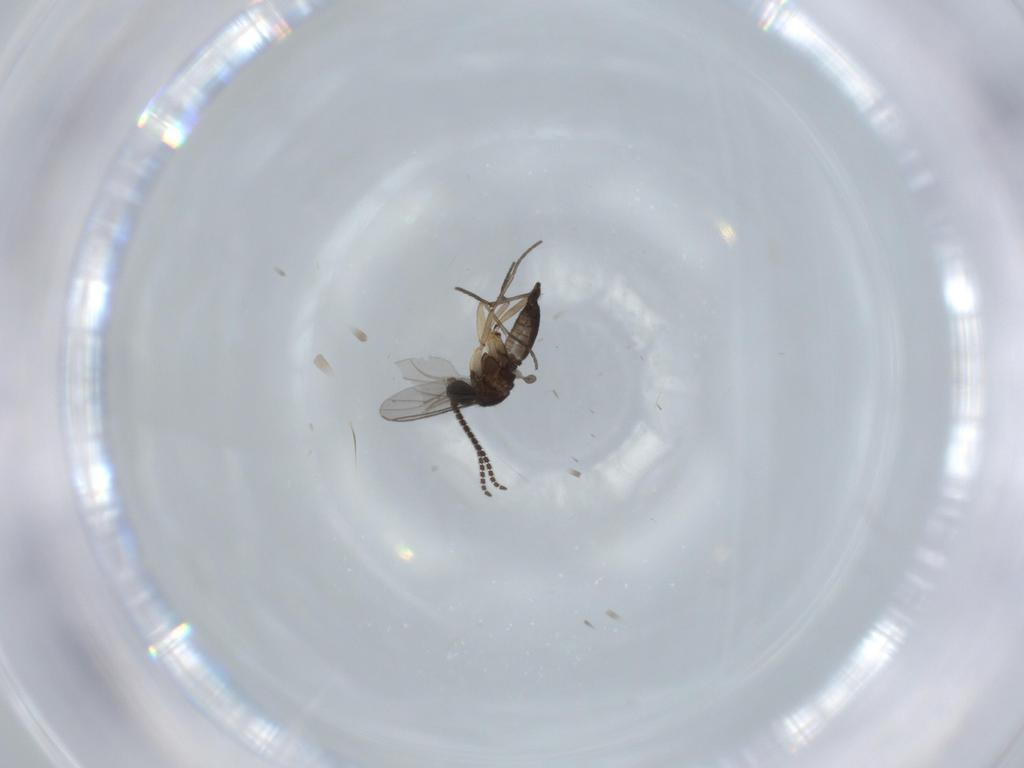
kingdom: Animalia
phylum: Arthropoda
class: Insecta
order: Diptera
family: Sciaridae
